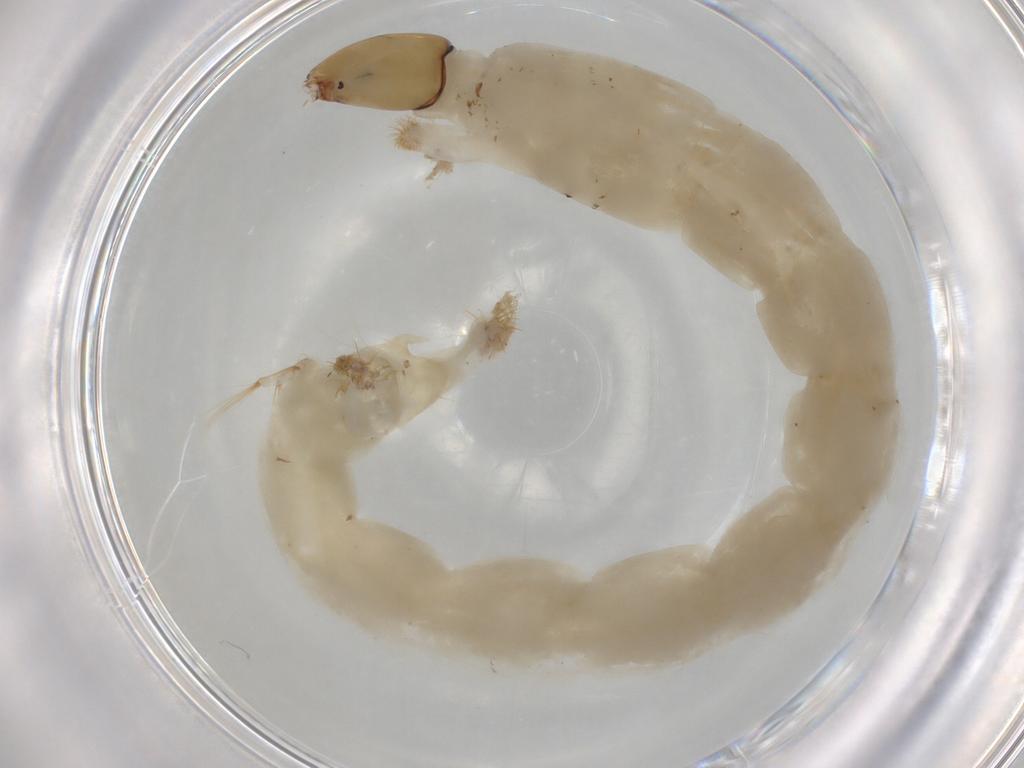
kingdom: Animalia
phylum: Arthropoda
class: Insecta
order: Diptera
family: Chironomidae
